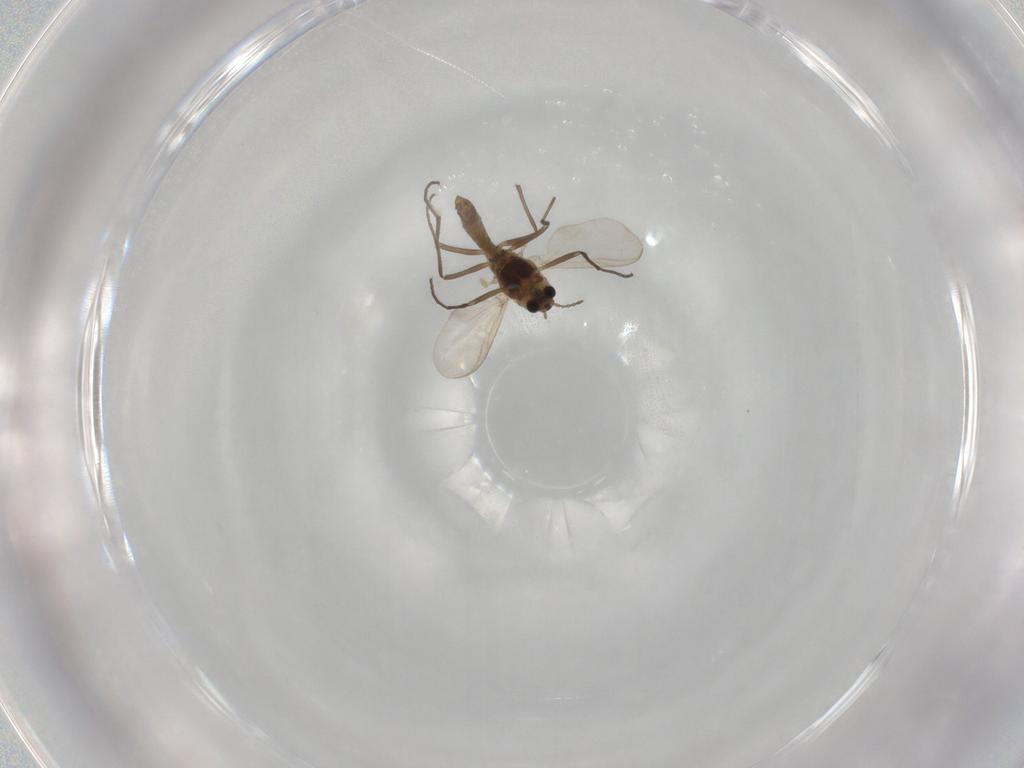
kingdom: Animalia
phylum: Arthropoda
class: Insecta
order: Diptera
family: Chironomidae
